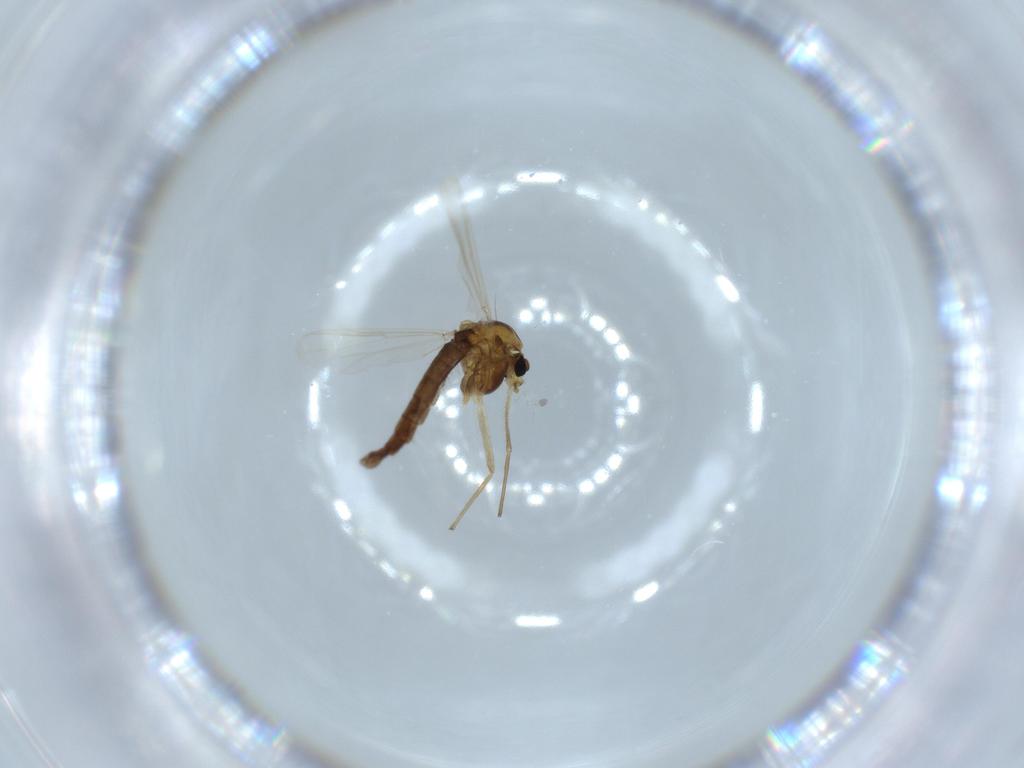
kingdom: Animalia
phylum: Arthropoda
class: Insecta
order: Diptera
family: Chironomidae
